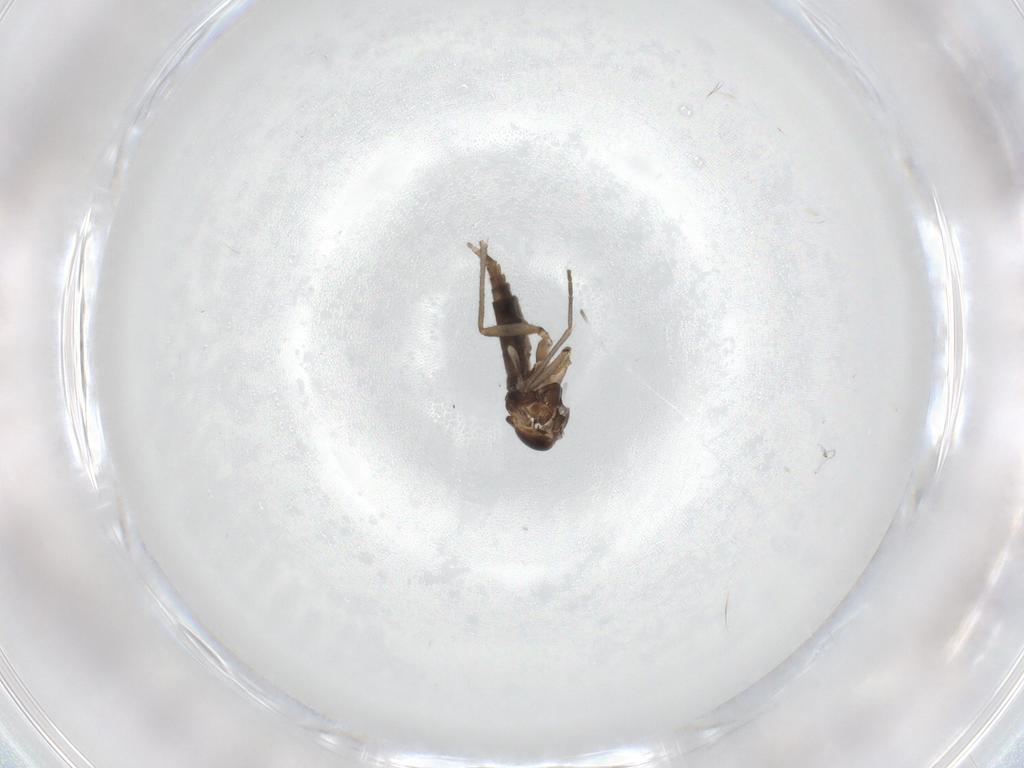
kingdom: Animalia
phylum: Arthropoda
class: Insecta
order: Diptera
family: Sciaridae
